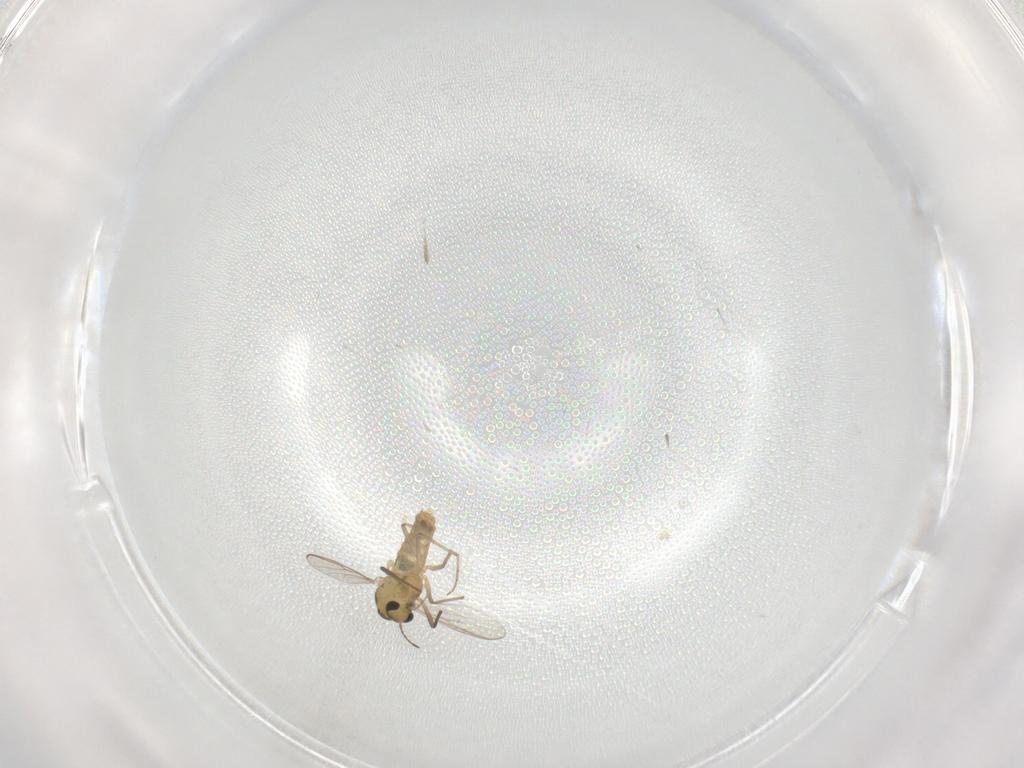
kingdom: Animalia
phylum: Arthropoda
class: Insecta
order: Diptera
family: Chironomidae
